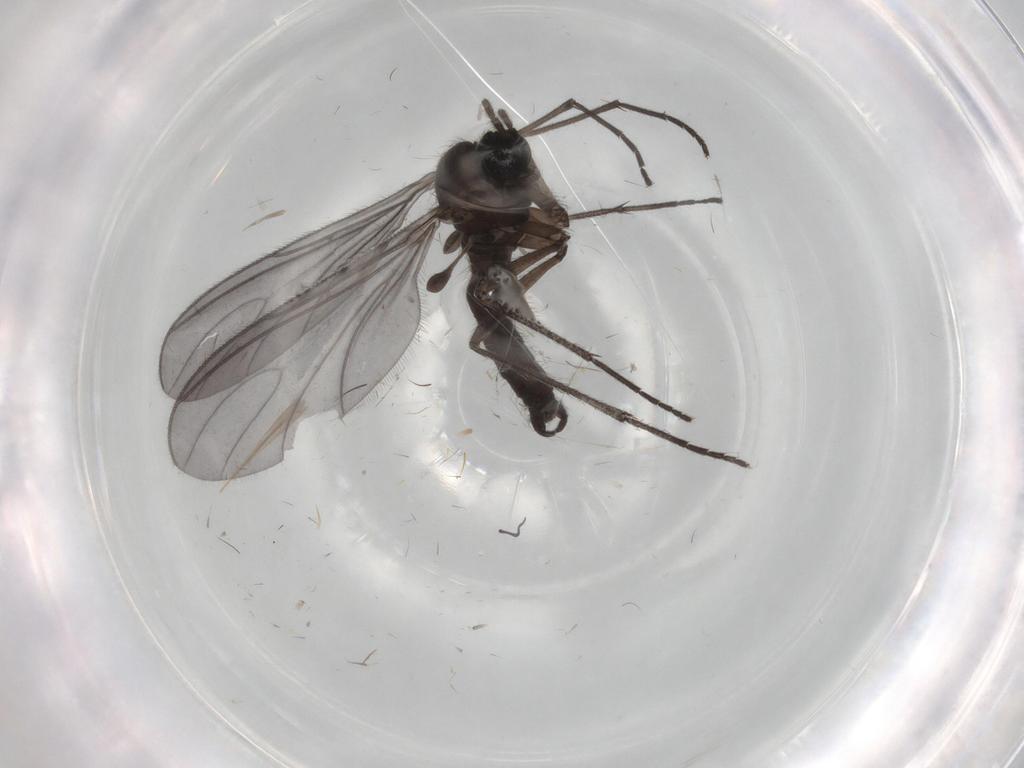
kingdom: Animalia
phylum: Arthropoda
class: Insecta
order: Diptera
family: Sciaridae
